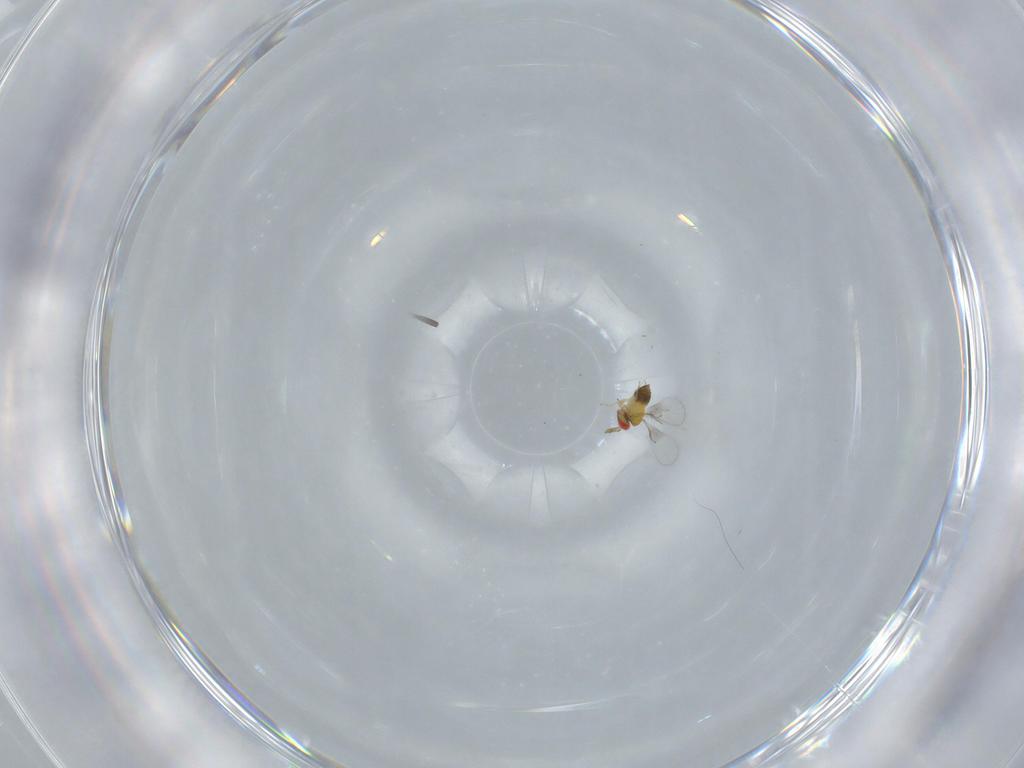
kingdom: Animalia
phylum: Arthropoda
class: Insecta
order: Hymenoptera
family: Trichogrammatidae
